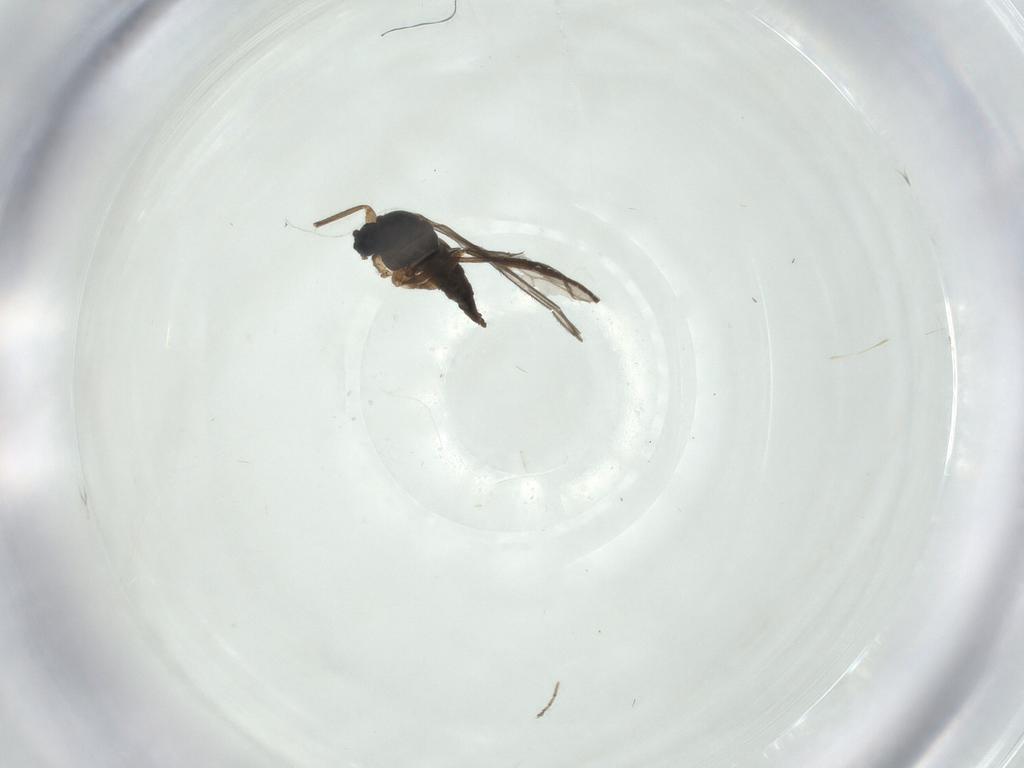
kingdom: Animalia
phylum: Arthropoda
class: Insecta
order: Diptera
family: Sciaridae
